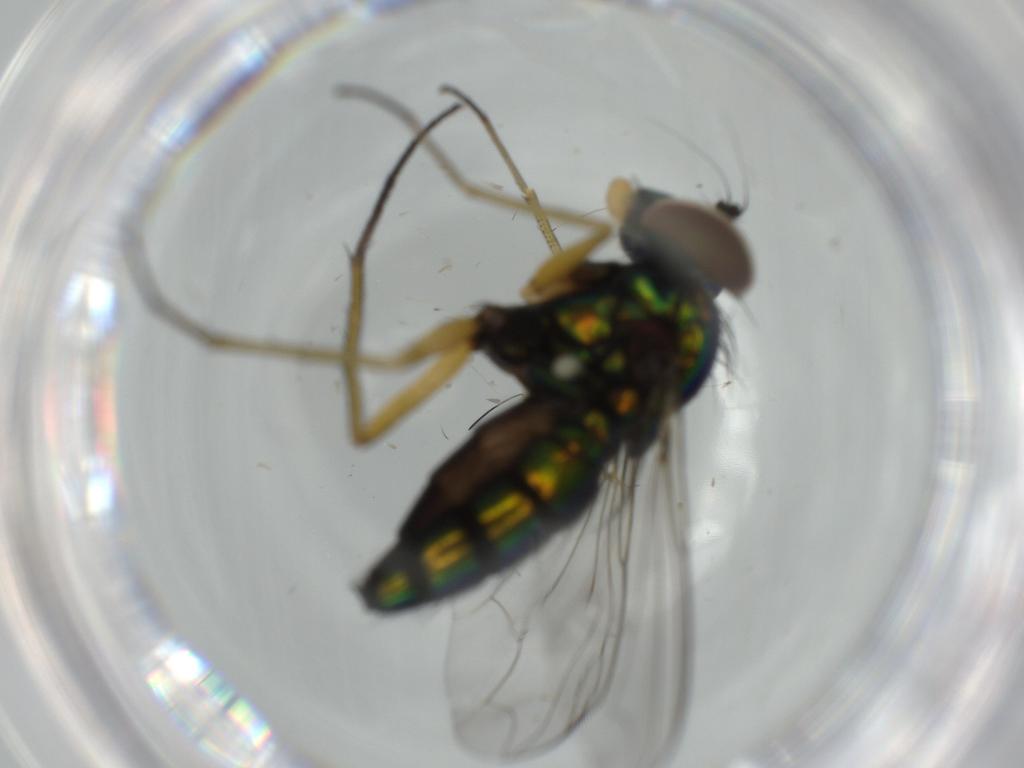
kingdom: Animalia
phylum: Arthropoda
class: Insecta
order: Diptera
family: Dolichopodidae
